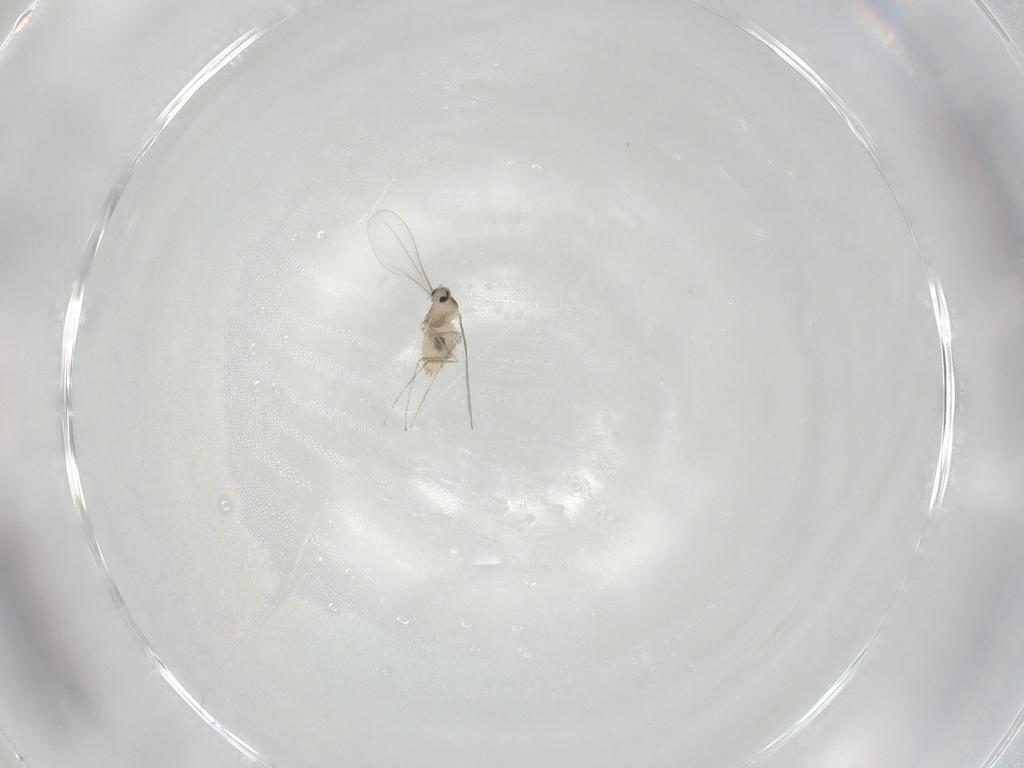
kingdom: Animalia
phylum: Arthropoda
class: Insecta
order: Diptera
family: Cecidomyiidae
